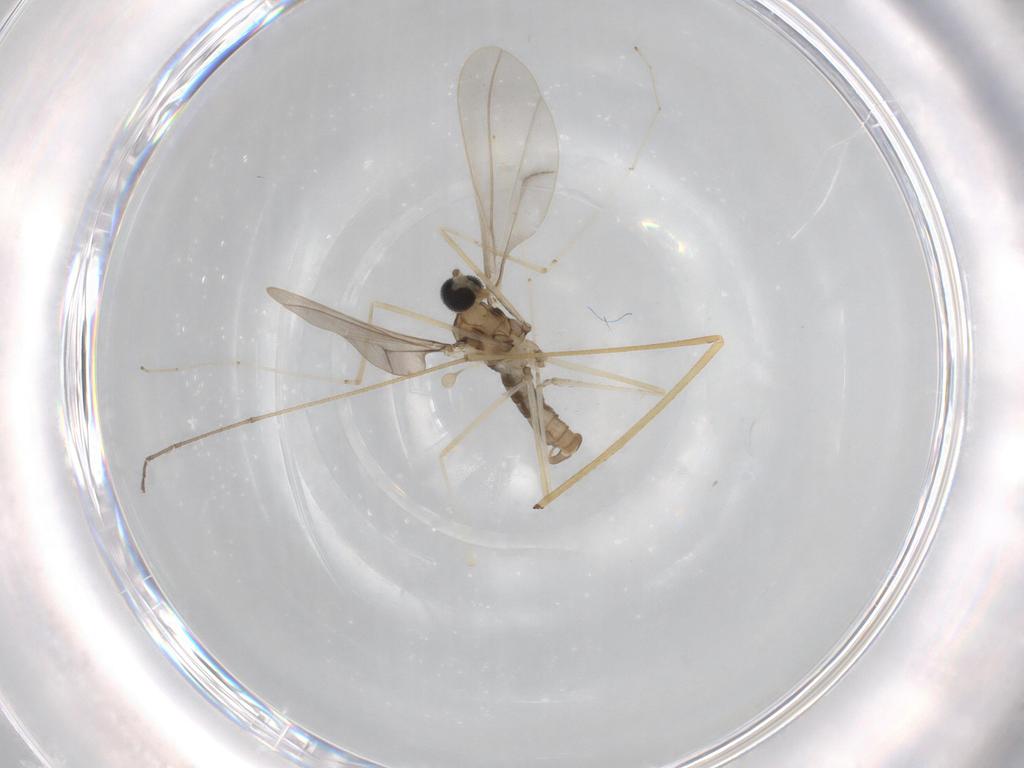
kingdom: Animalia
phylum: Arthropoda
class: Insecta
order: Diptera
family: Cecidomyiidae
